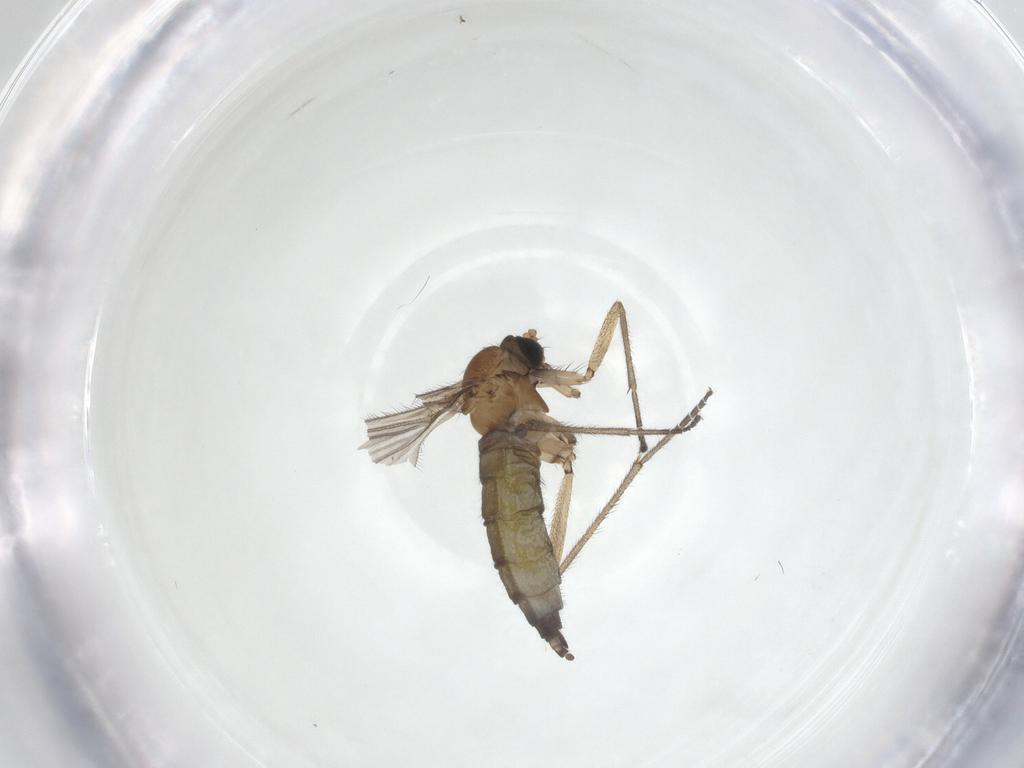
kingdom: Animalia
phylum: Arthropoda
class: Insecta
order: Diptera
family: Sciaridae
